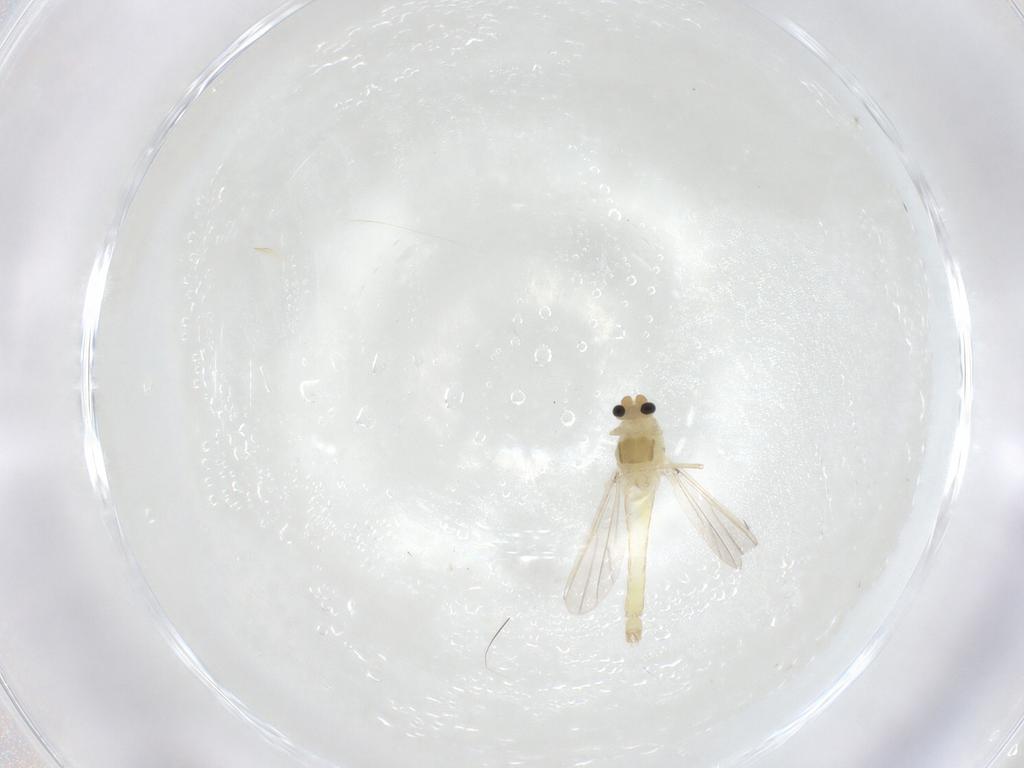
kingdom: Animalia
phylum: Arthropoda
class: Insecta
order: Diptera
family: Chironomidae
